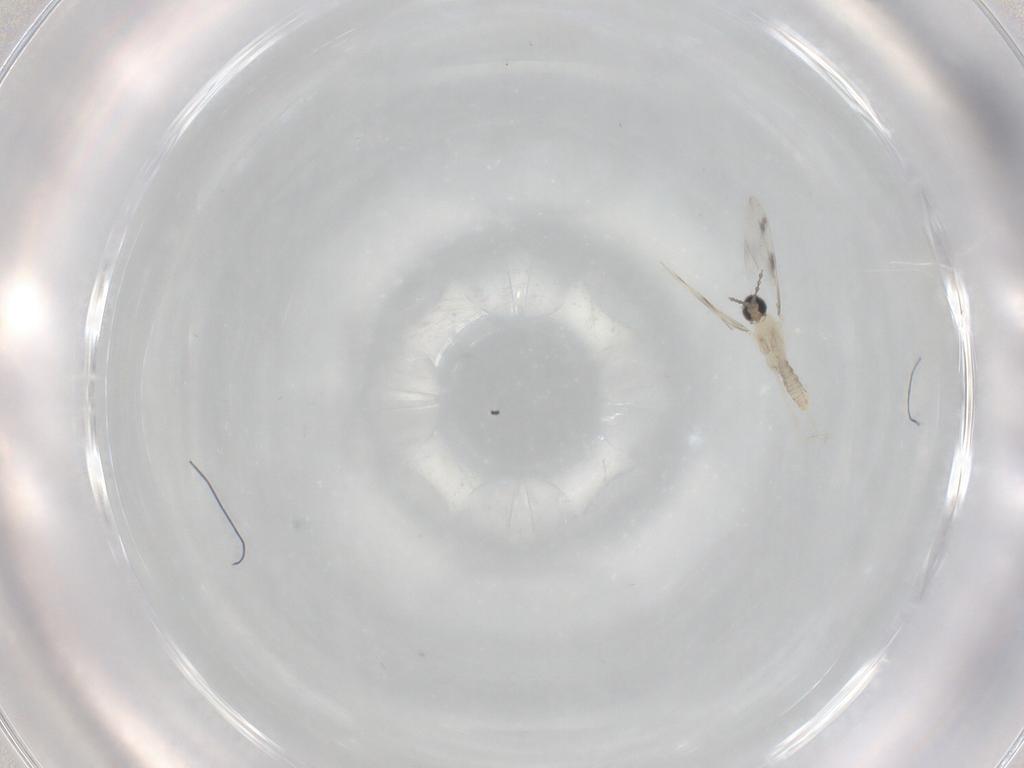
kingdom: Animalia
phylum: Arthropoda
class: Insecta
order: Diptera
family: Cecidomyiidae
